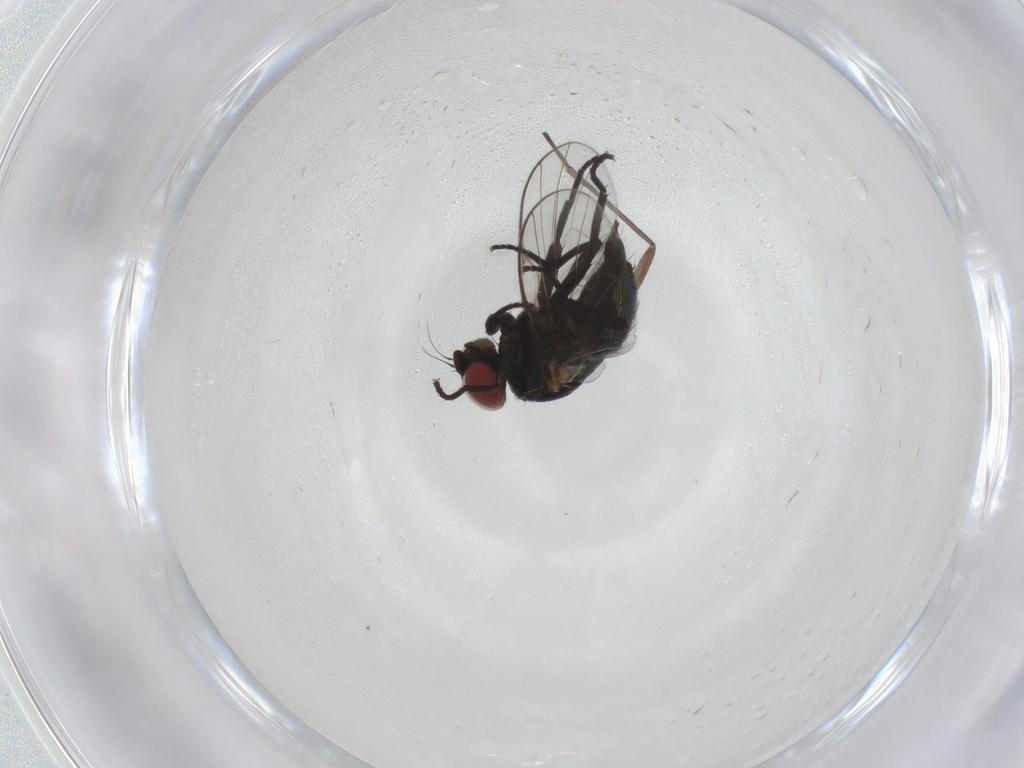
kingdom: Animalia
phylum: Arthropoda
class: Insecta
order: Diptera
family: Agromyzidae
